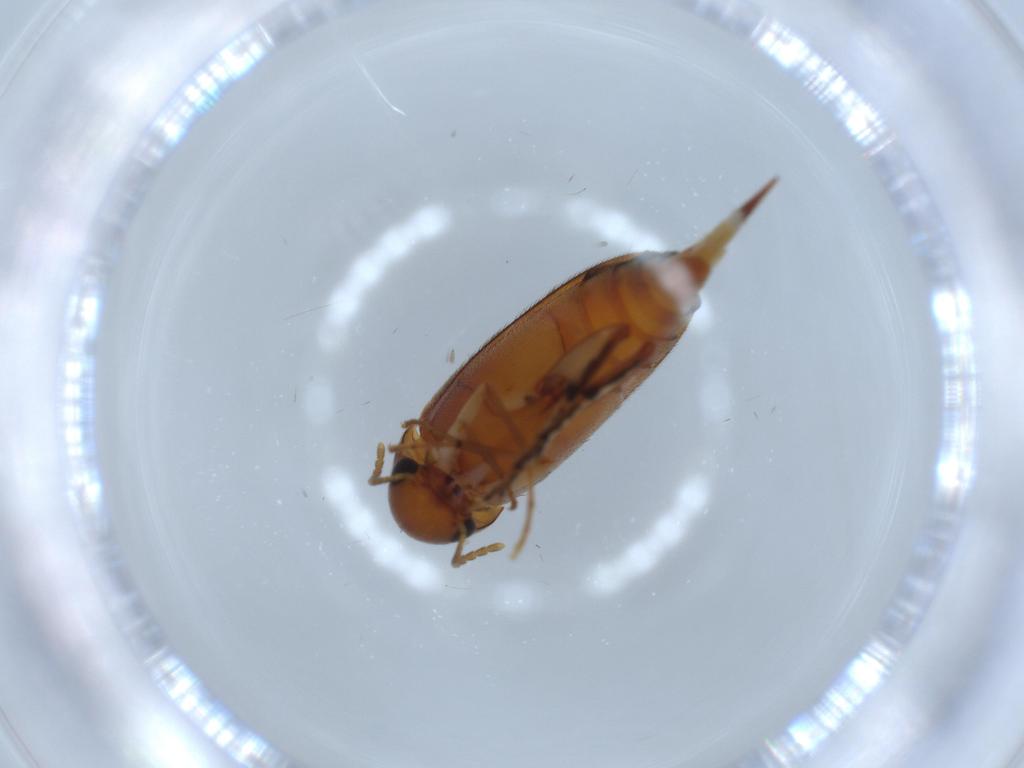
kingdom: Animalia
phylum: Arthropoda
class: Insecta
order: Coleoptera
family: Mordellidae
